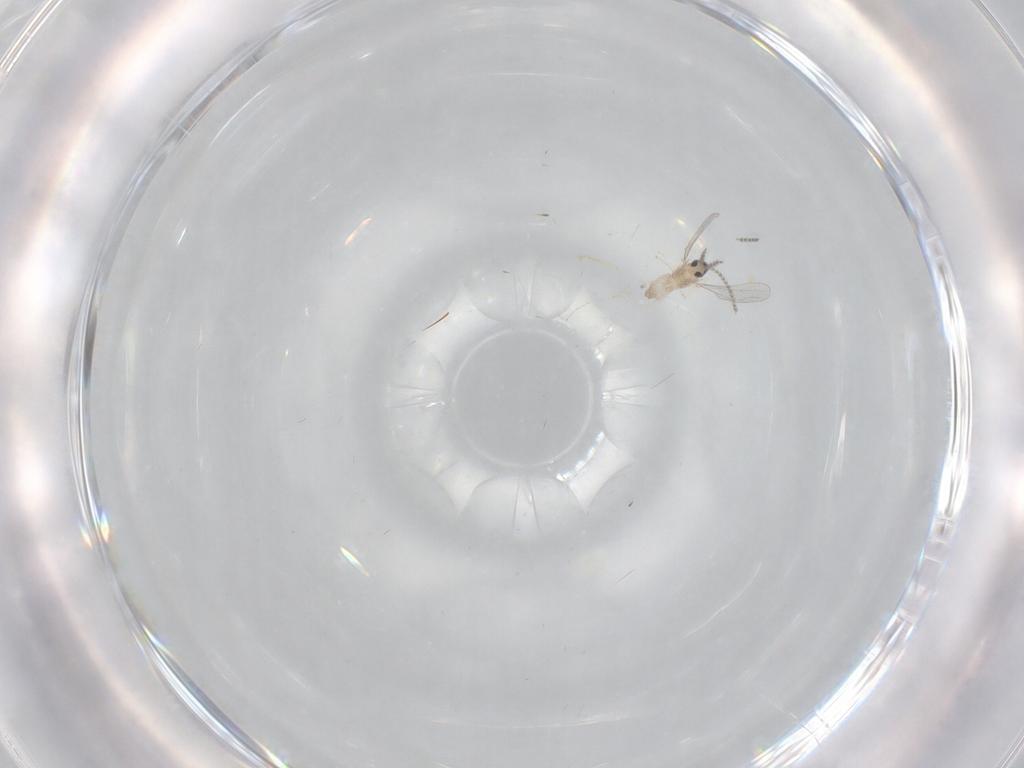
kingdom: Animalia
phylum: Arthropoda
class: Insecta
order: Diptera
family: Cecidomyiidae
